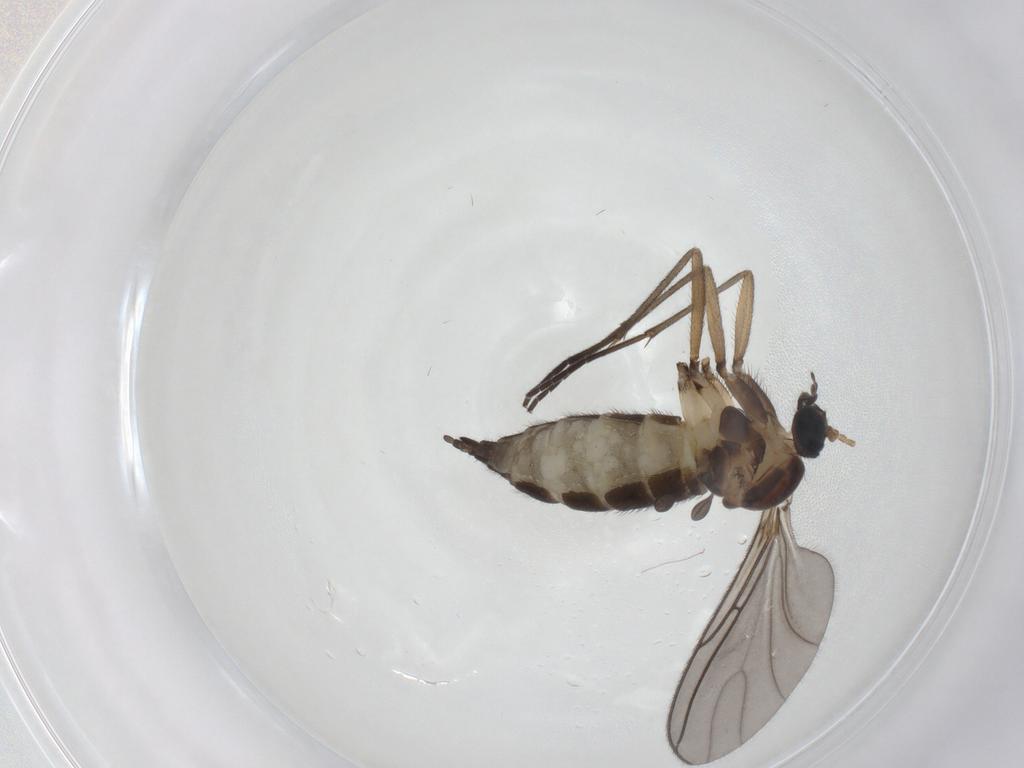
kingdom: Animalia
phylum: Arthropoda
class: Insecta
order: Diptera
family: Sciaridae
